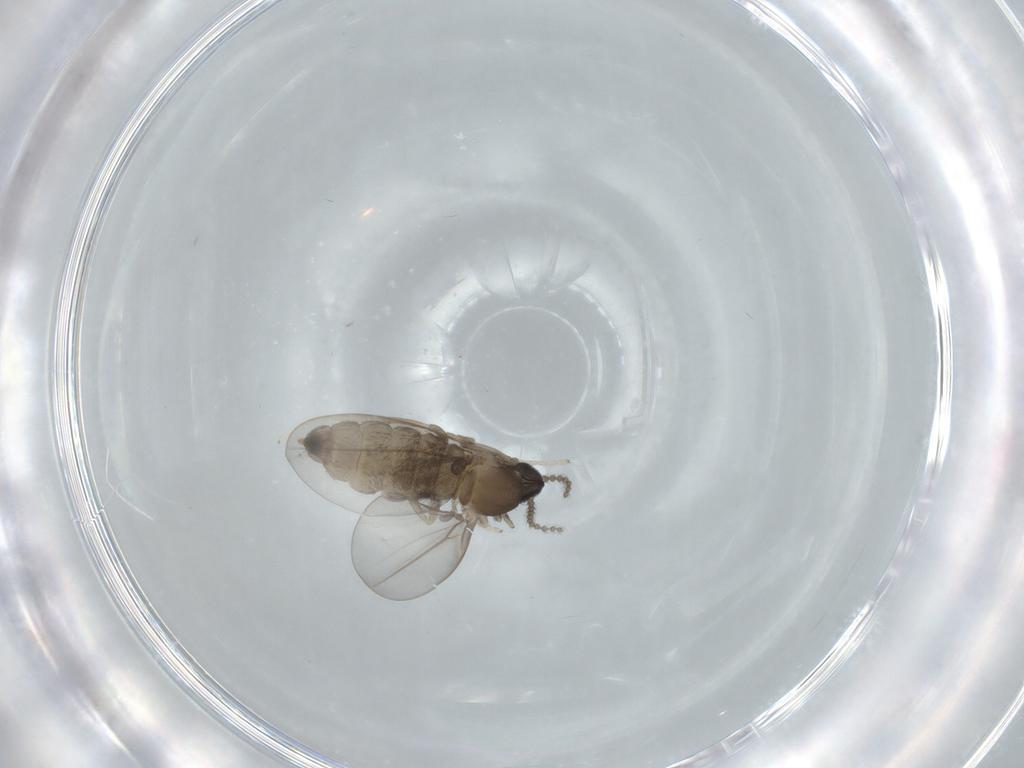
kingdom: Animalia
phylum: Arthropoda
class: Insecta
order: Diptera
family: Cecidomyiidae
